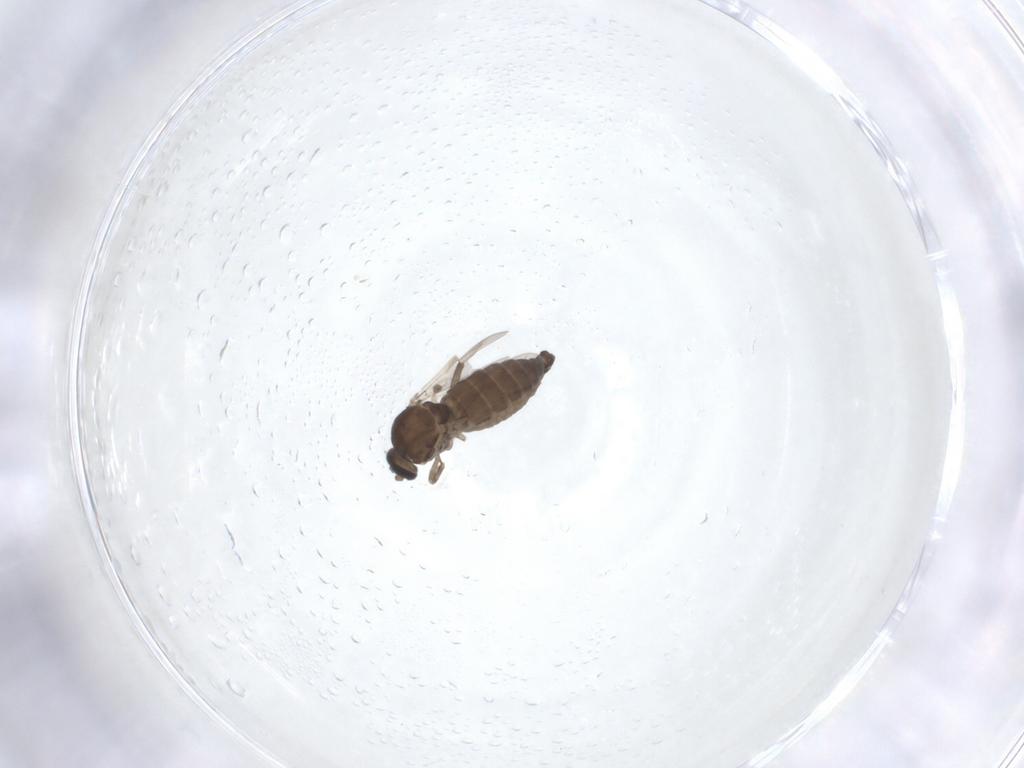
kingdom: Animalia
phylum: Arthropoda
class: Insecta
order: Diptera
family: Ceratopogonidae
